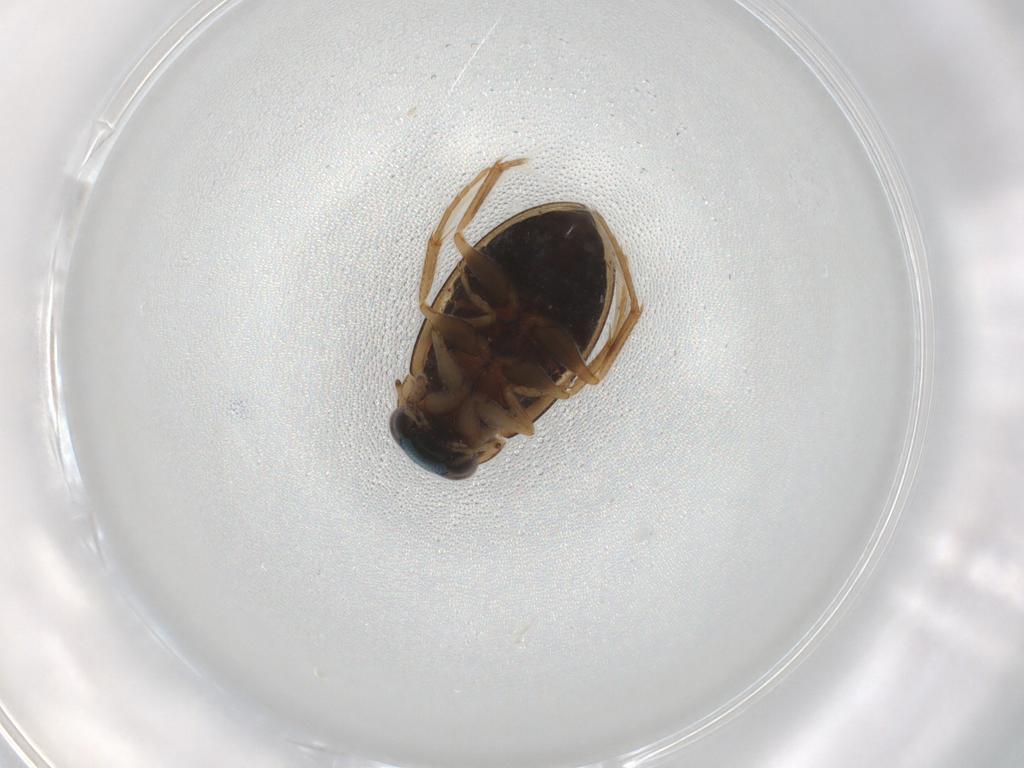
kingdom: Animalia
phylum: Arthropoda
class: Insecta
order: Coleoptera
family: Hydrophilidae
